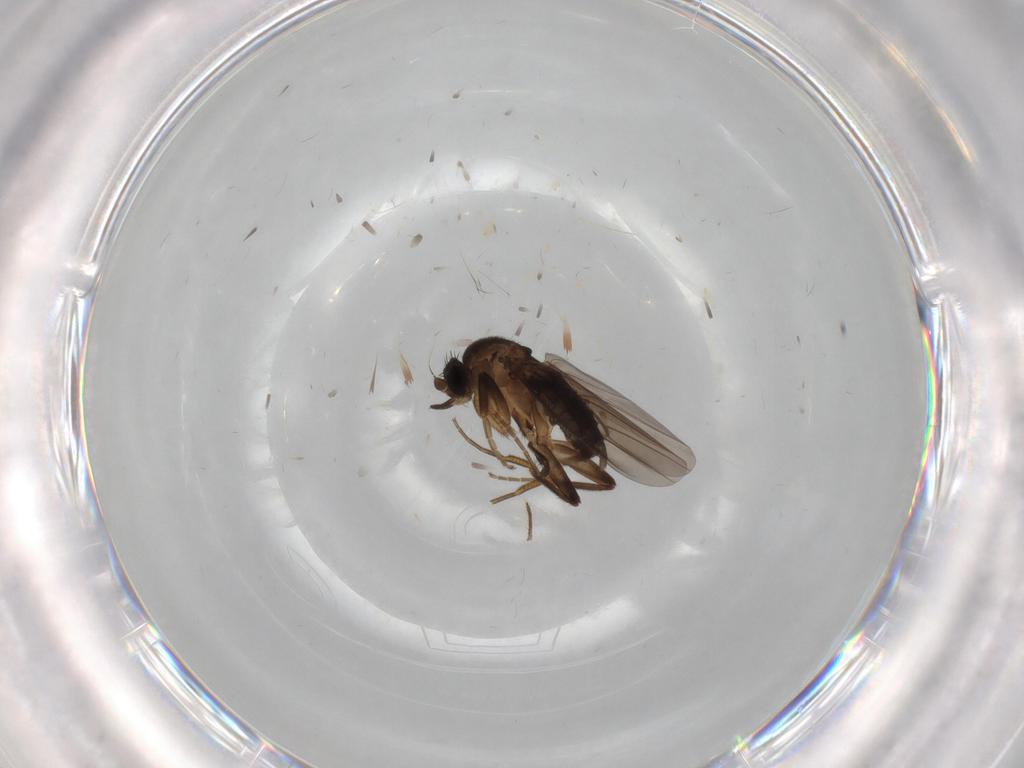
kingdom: Animalia
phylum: Arthropoda
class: Insecta
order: Diptera
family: Phoridae
